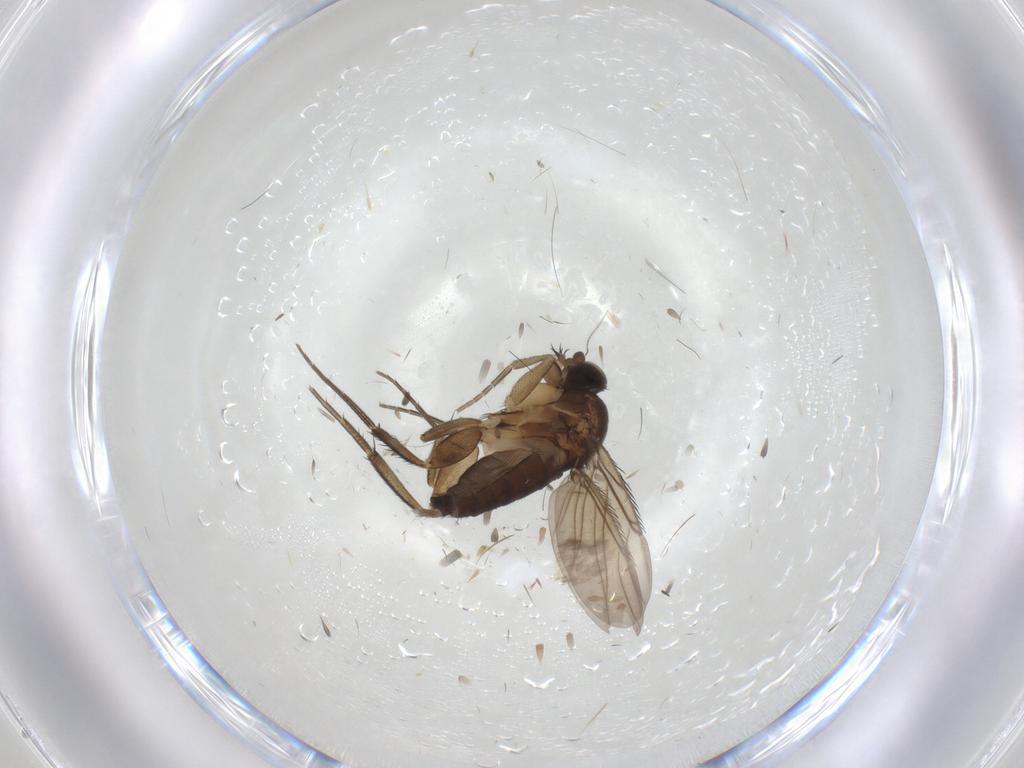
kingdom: Animalia
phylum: Arthropoda
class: Insecta
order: Diptera
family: Phoridae
